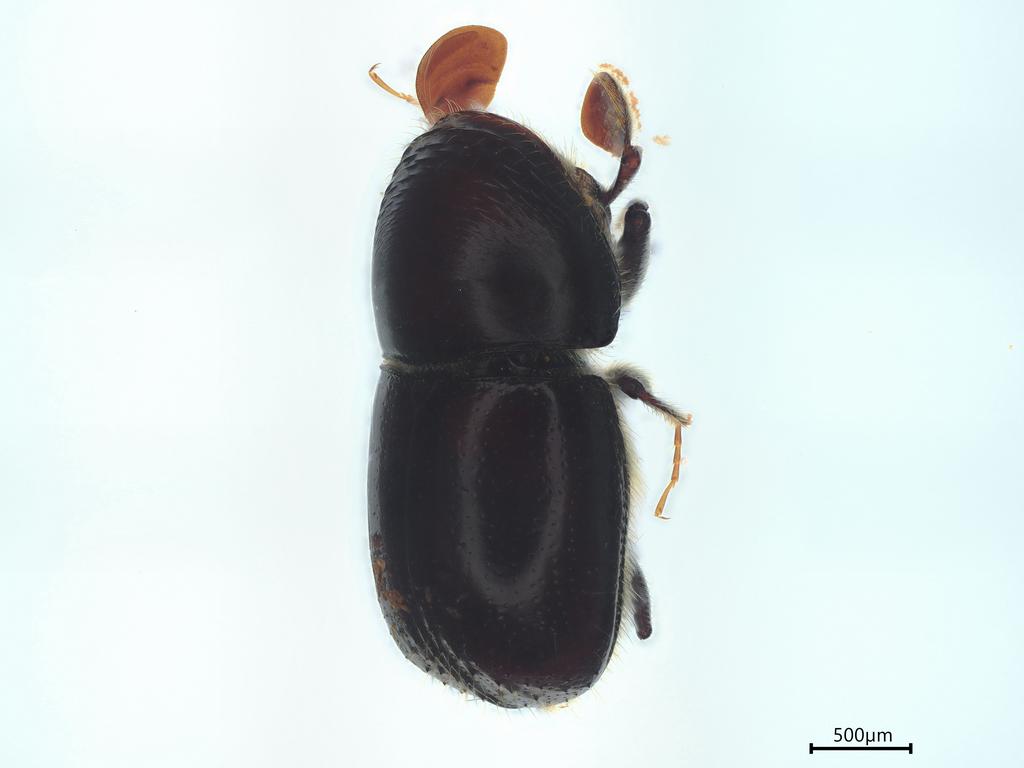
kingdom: Animalia
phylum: Arthropoda
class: Insecta
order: Coleoptera
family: Curculionidae
